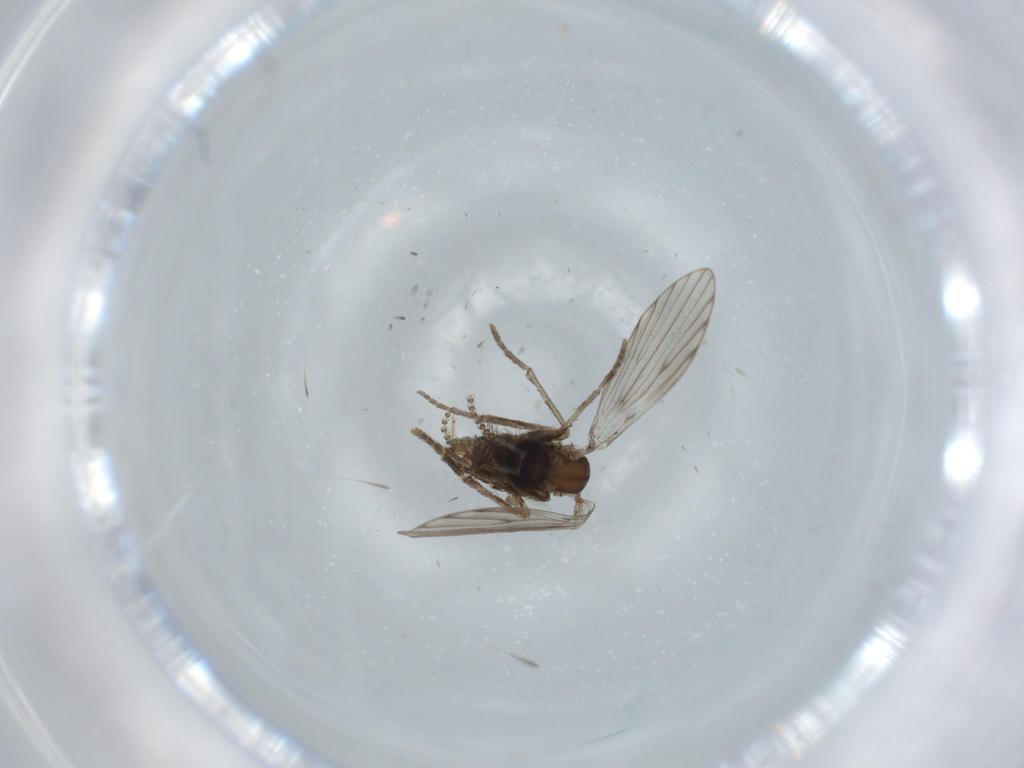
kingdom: Animalia
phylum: Arthropoda
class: Insecta
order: Diptera
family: Psychodidae
